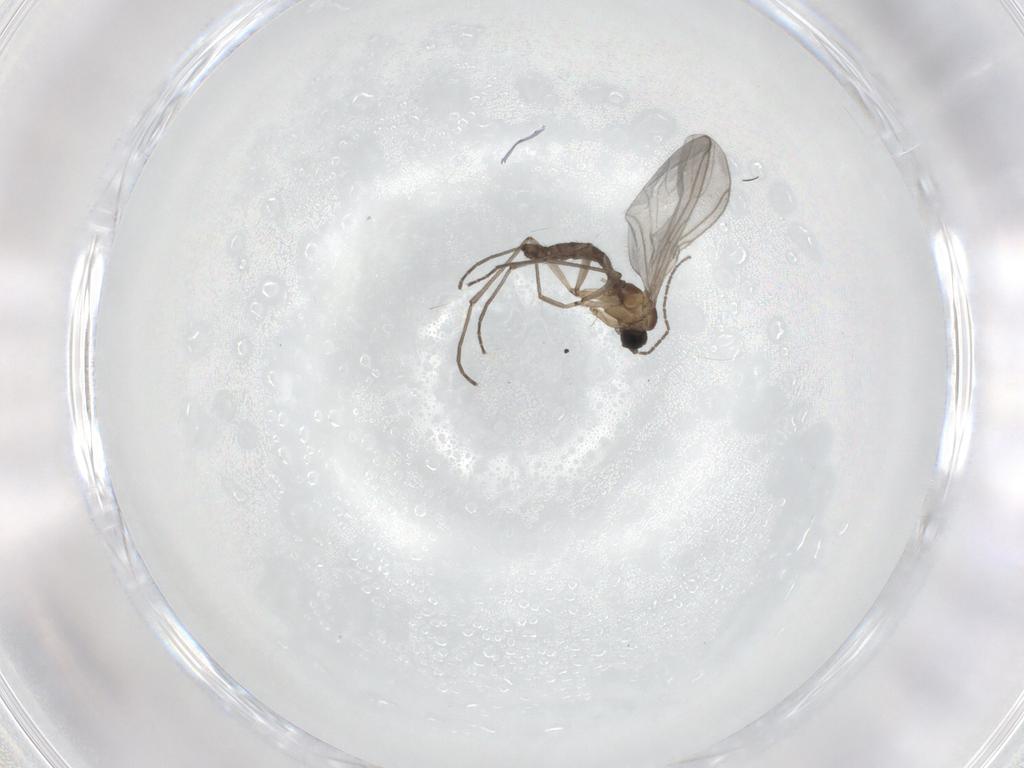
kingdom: Animalia
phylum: Arthropoda
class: Insecta
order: Diptera
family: Sciaridae
